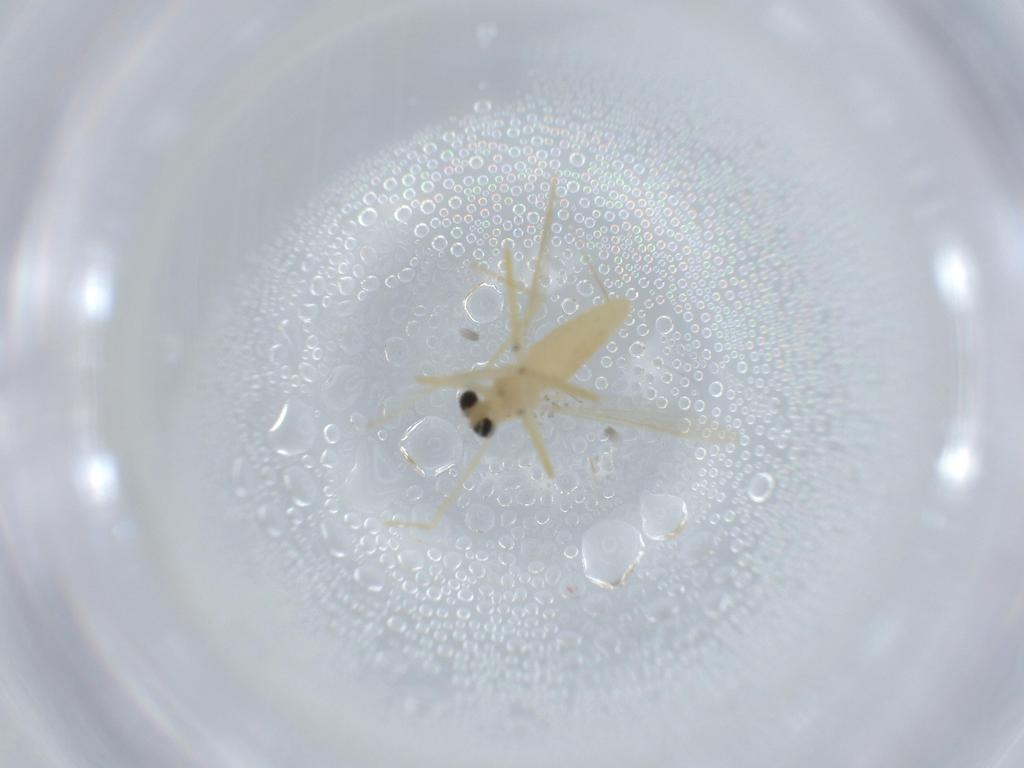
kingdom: Animalia
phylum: Arthropoda
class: Insecta
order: Diptera
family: Chironomidae
